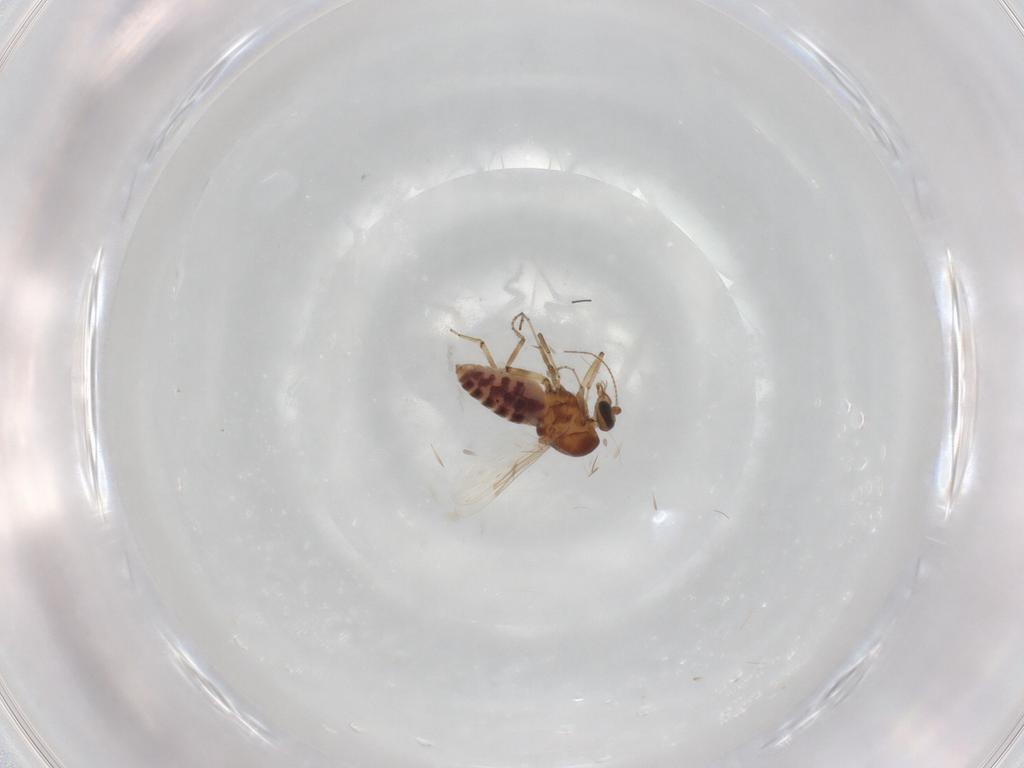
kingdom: Animalia
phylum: Arthropoda
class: Insecta
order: Diptera
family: Ceratopogonidae
